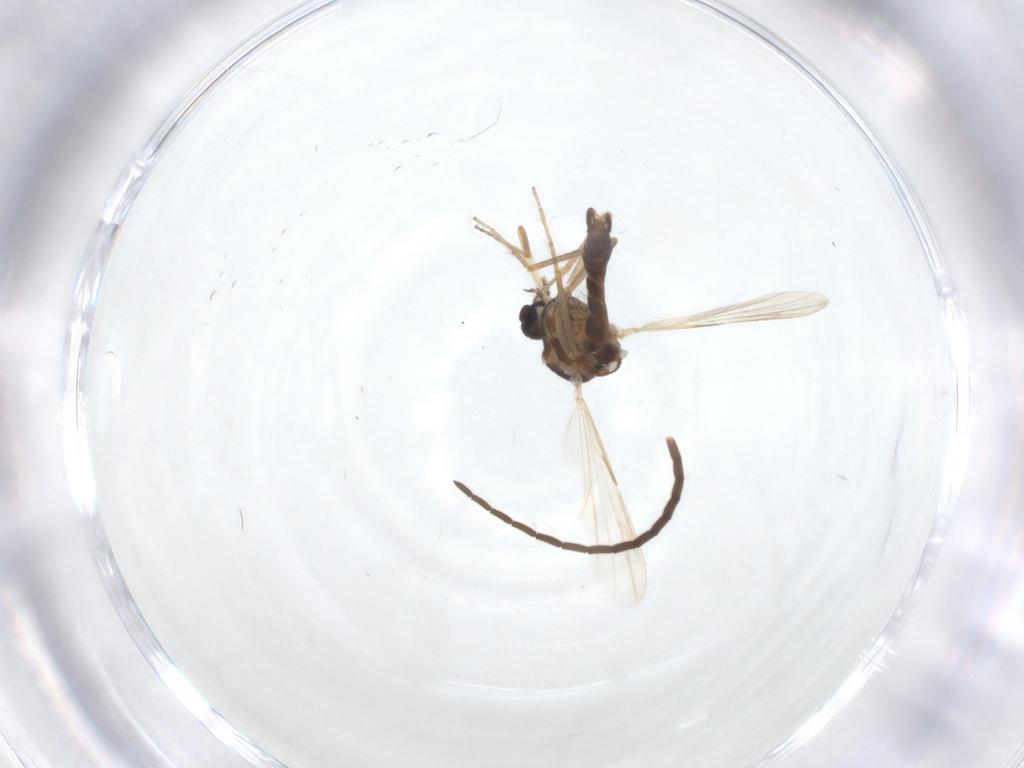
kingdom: Animalia
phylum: Arthropoda
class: Insecta
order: Diptera
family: Ceratopogonidae
